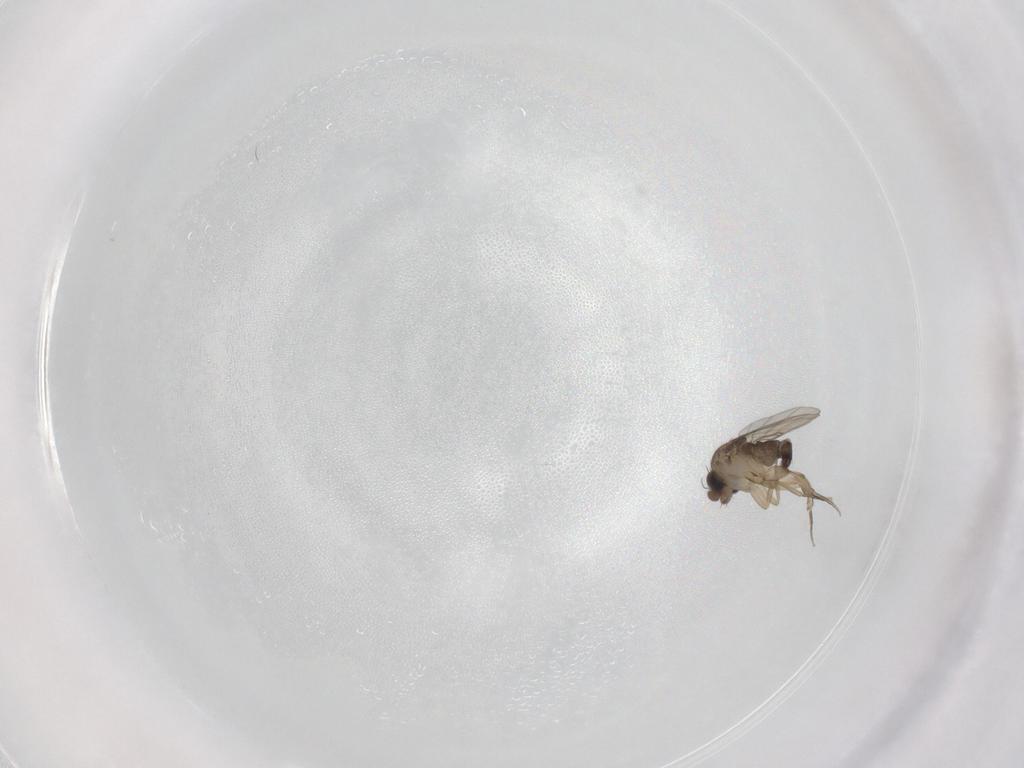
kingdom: Animalia
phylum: Arthropoda
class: Insecta
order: Diptera
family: Phoridae
